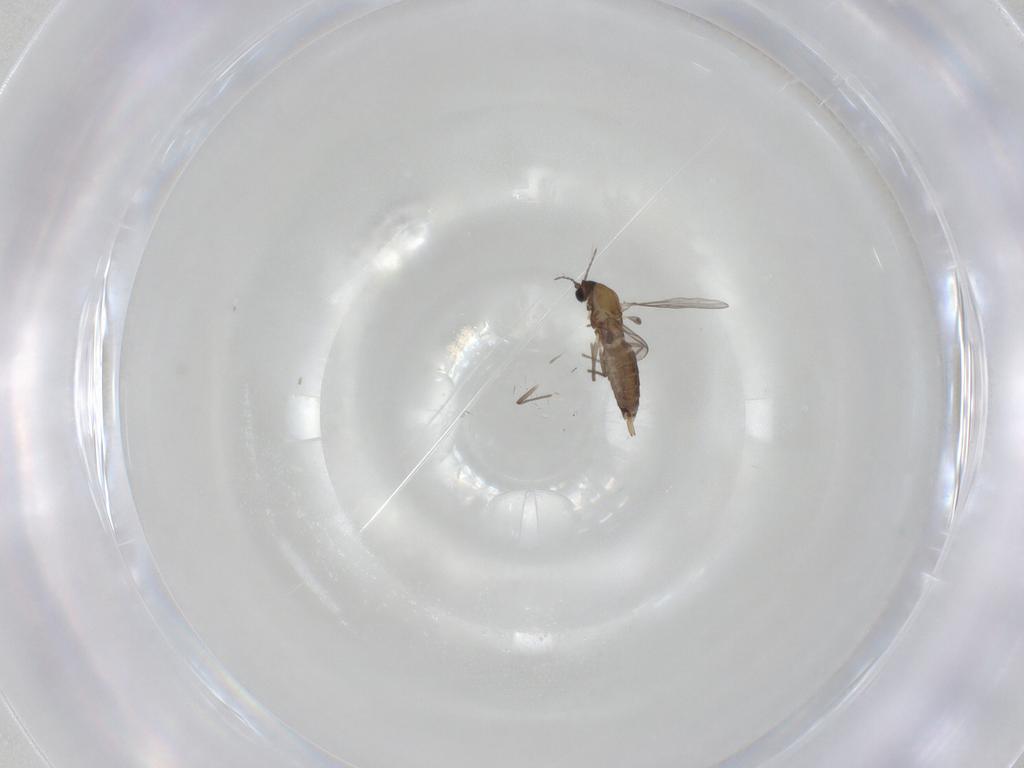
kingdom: Animalia
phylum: Arthropoda
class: Insecta
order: Diptera
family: Chironomidae
